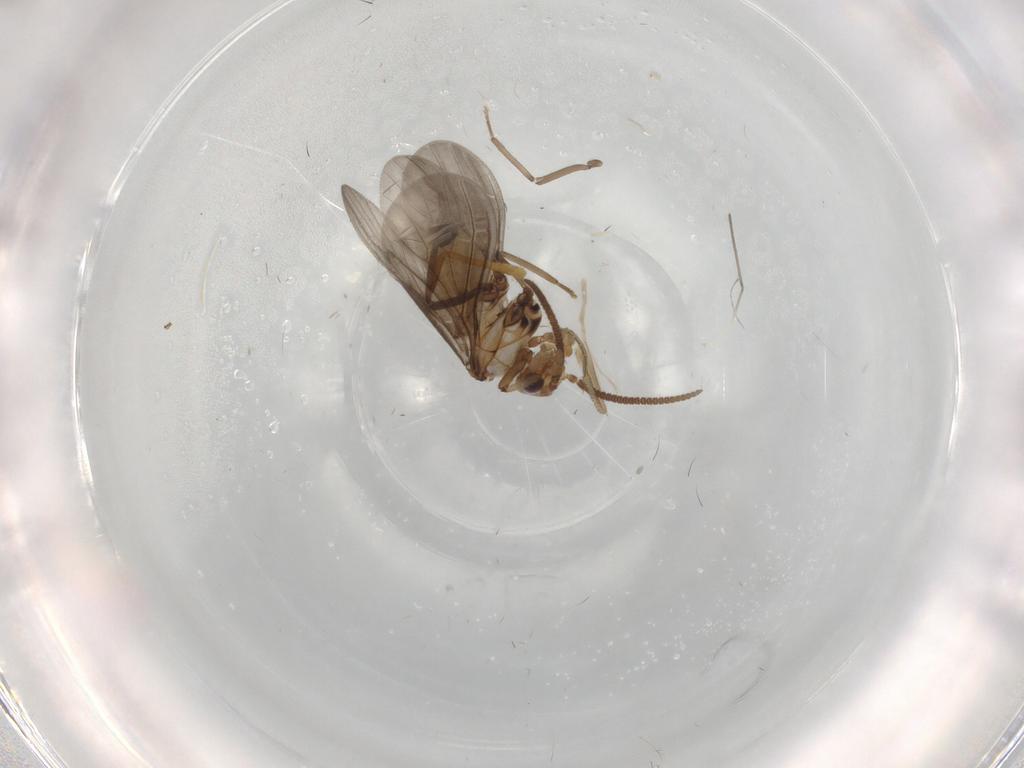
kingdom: Animalia
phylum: Arthropoda
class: Insecta
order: Neuroptera
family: Coniopterygidae
